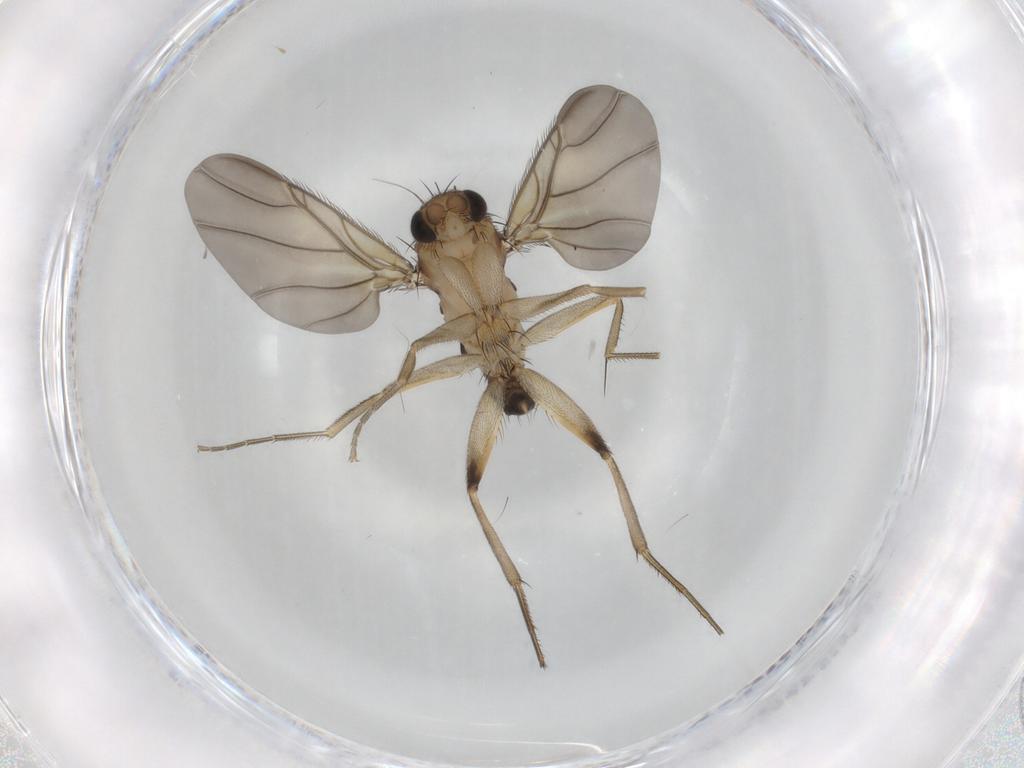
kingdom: Animalia
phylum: Arthropoda
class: Insecta
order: Diptera
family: Phoridae
